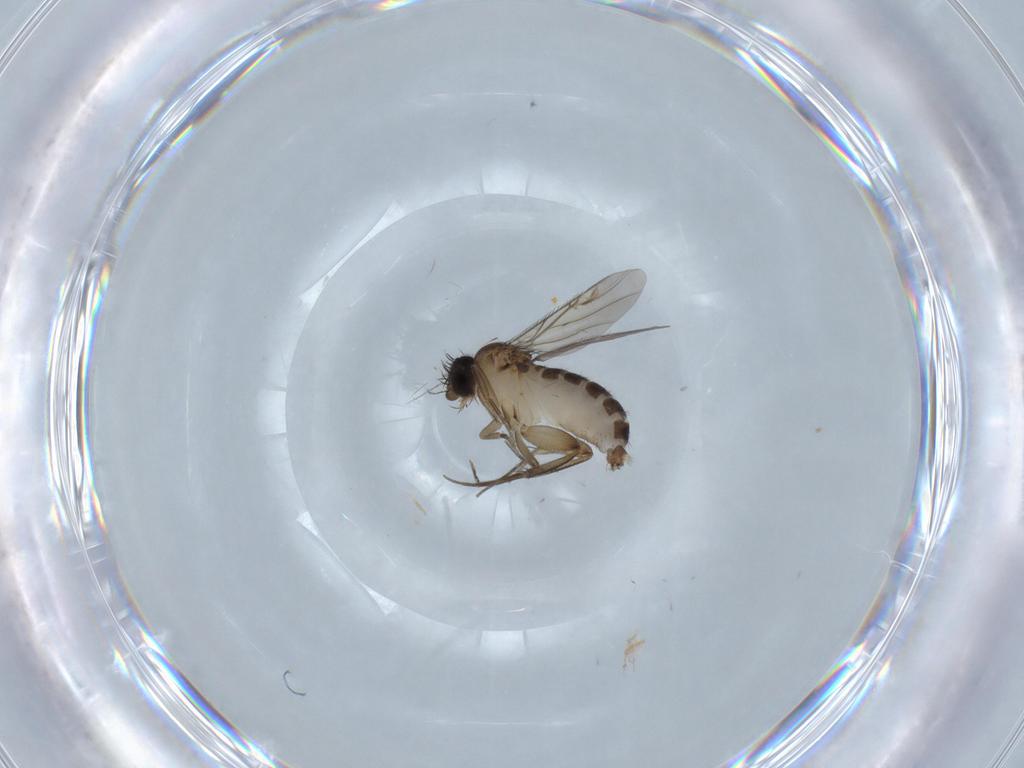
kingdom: Animalia
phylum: Arthropoda
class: Insecta
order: Diptera
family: Phoridae
